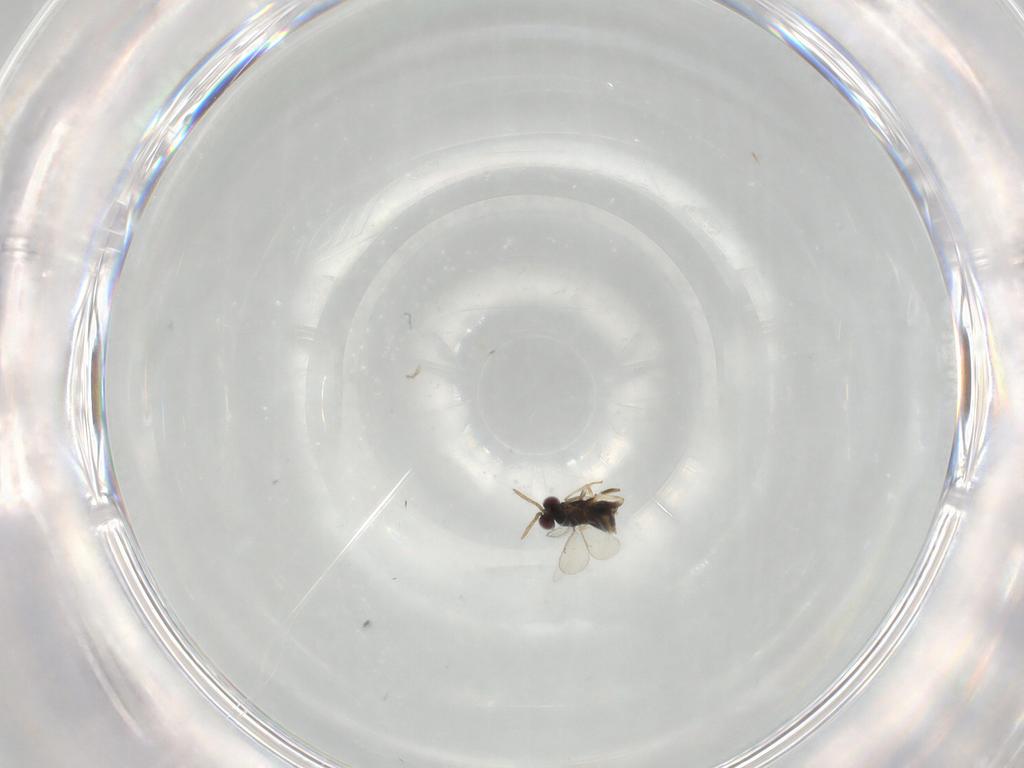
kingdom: Animalia
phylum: Arthropoda
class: Insecta
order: Hymenoptera
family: Aphelinidae
